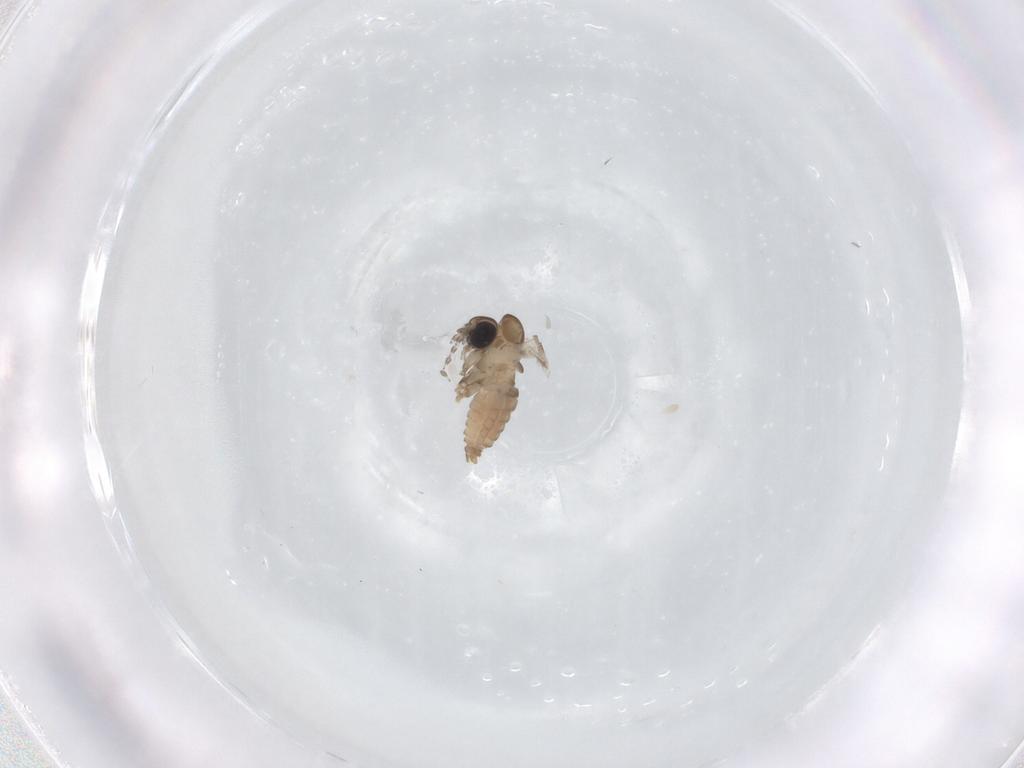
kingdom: Animalia
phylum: Arthropoda
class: Insecta
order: Diptera
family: Psychodidae
